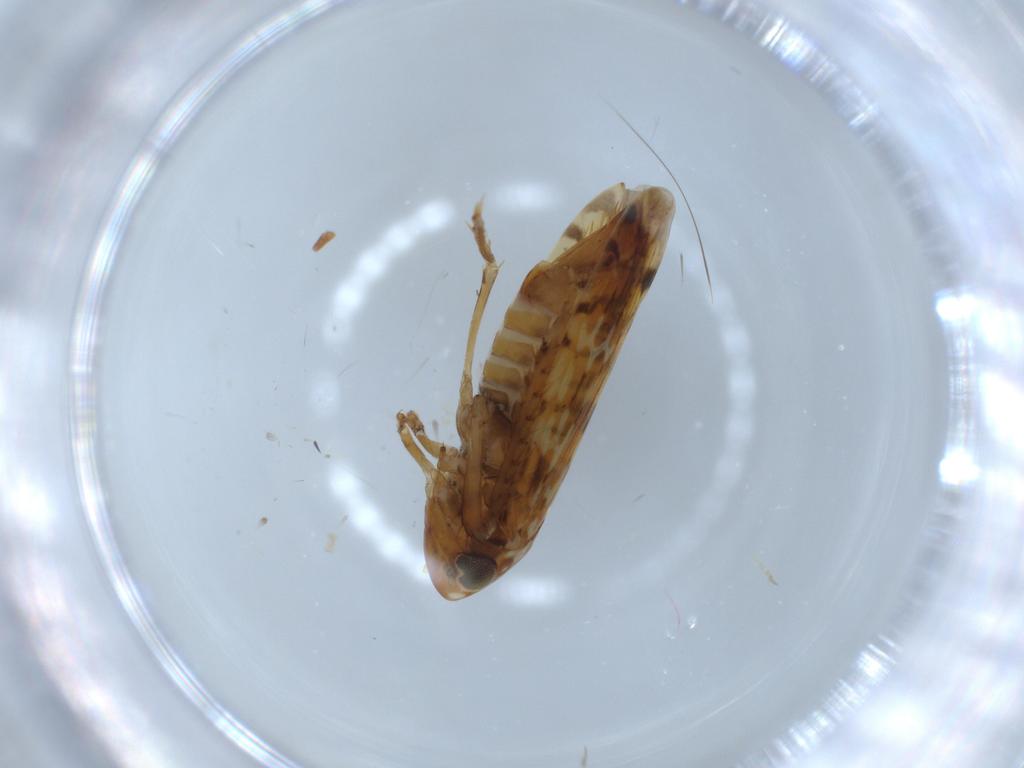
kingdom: Animalia
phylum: Arthropoda
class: Insecta
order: Hemiptera
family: Cicadellidae
